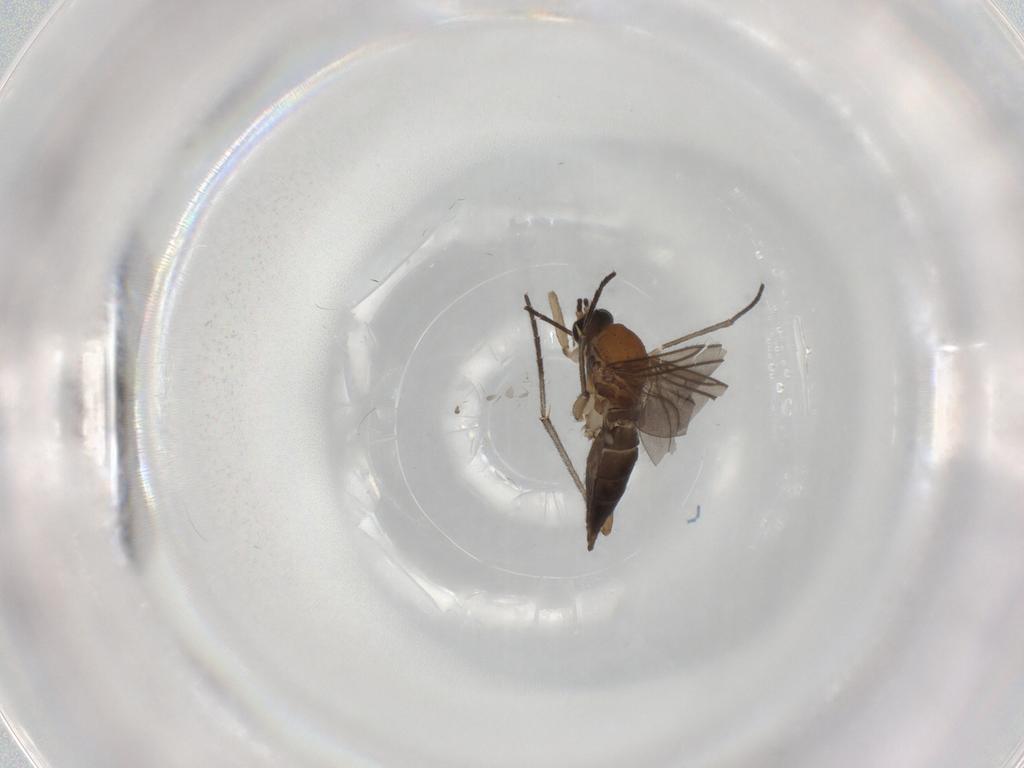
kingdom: Animalia
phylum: Arthropoda
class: Insecta
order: Diptera
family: Sciaridae
